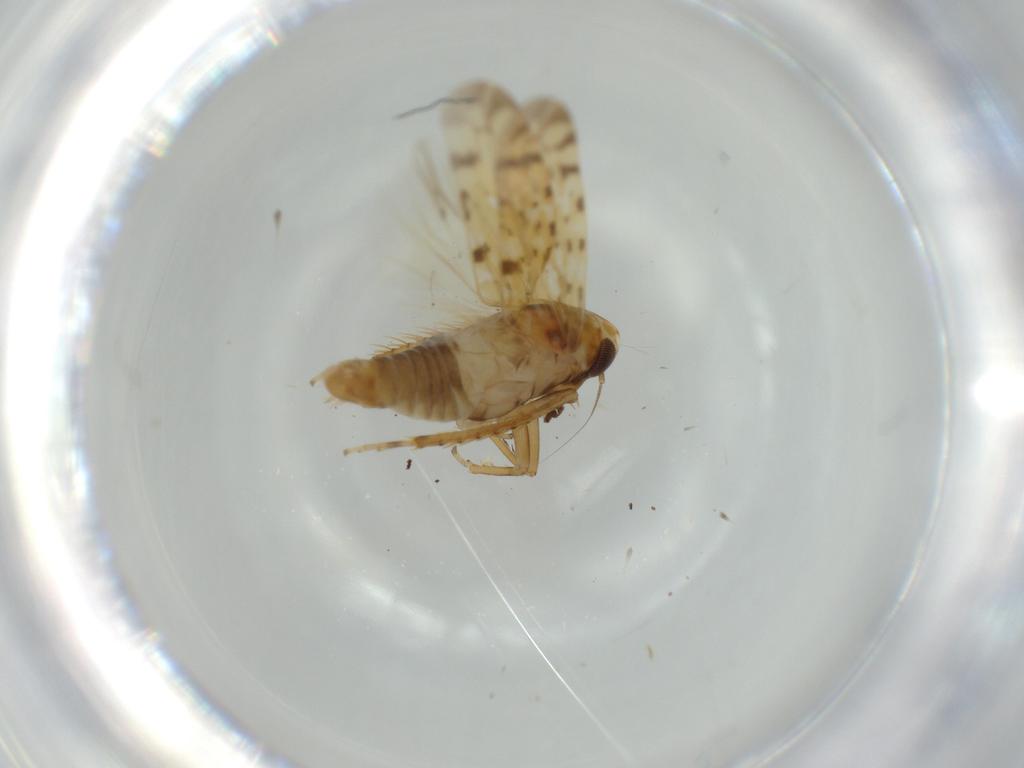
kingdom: Animalia
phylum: Arthropoda
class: Insecta
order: Hemiptera
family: Cicadellidae
